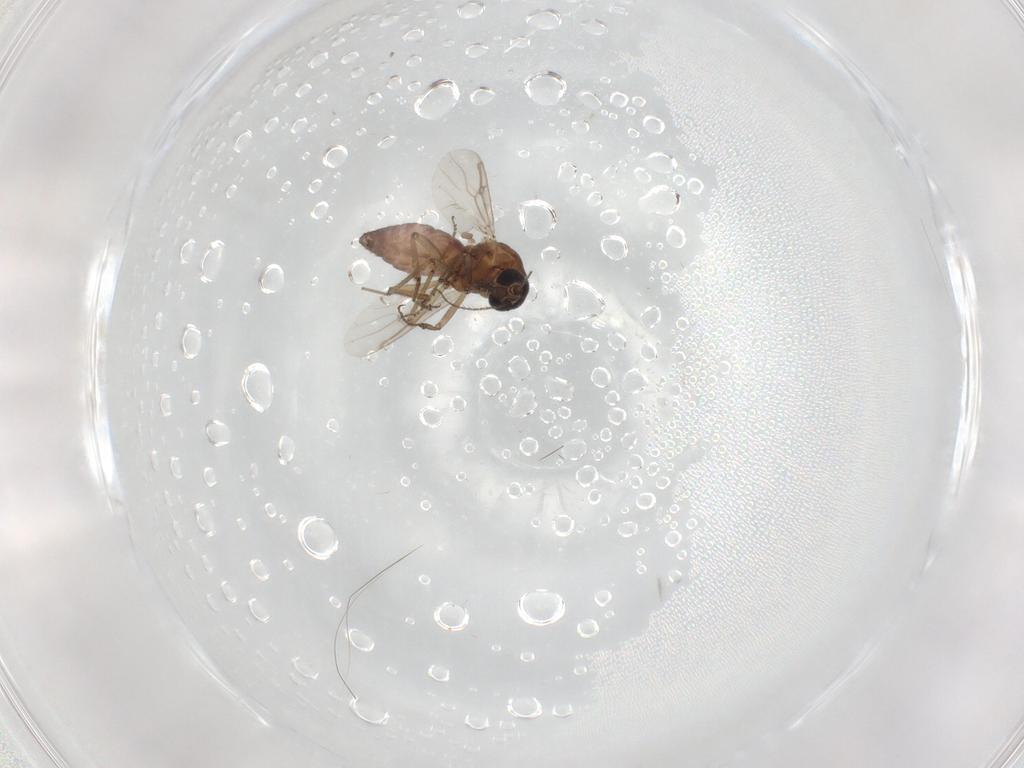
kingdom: Animalia
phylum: Arthropoda
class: Insecta
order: Diptera
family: Ceratopogonidae
